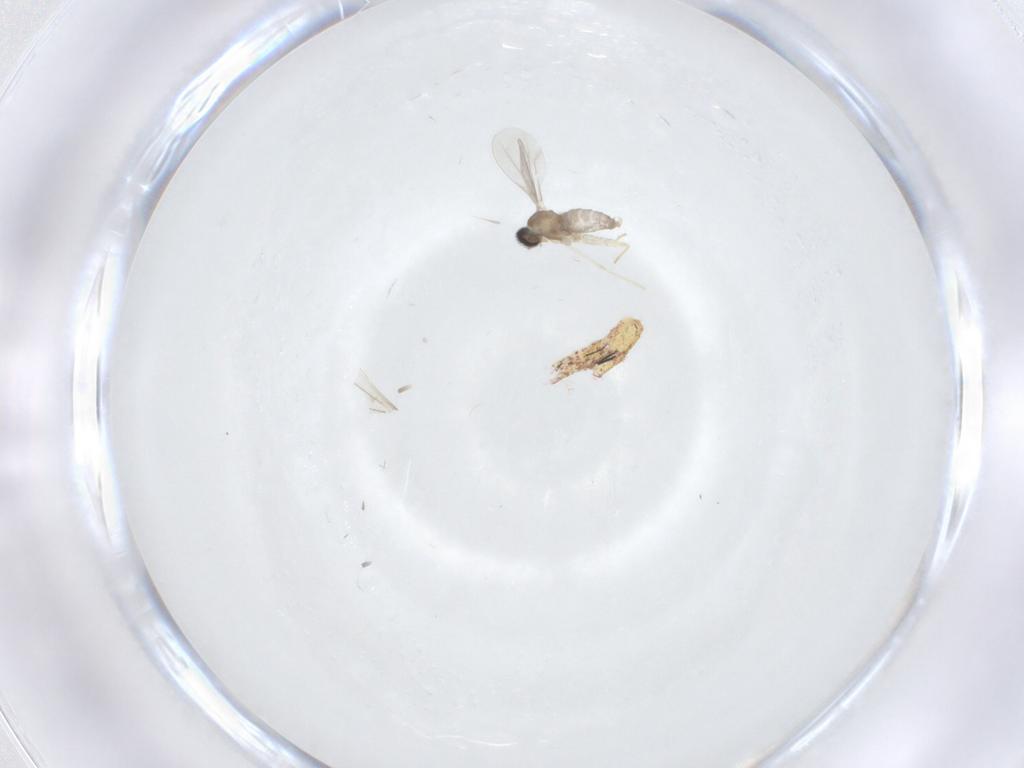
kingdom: Animalia
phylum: Arthropoda
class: Insecta
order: Diptera
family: Cecidomyiidae
